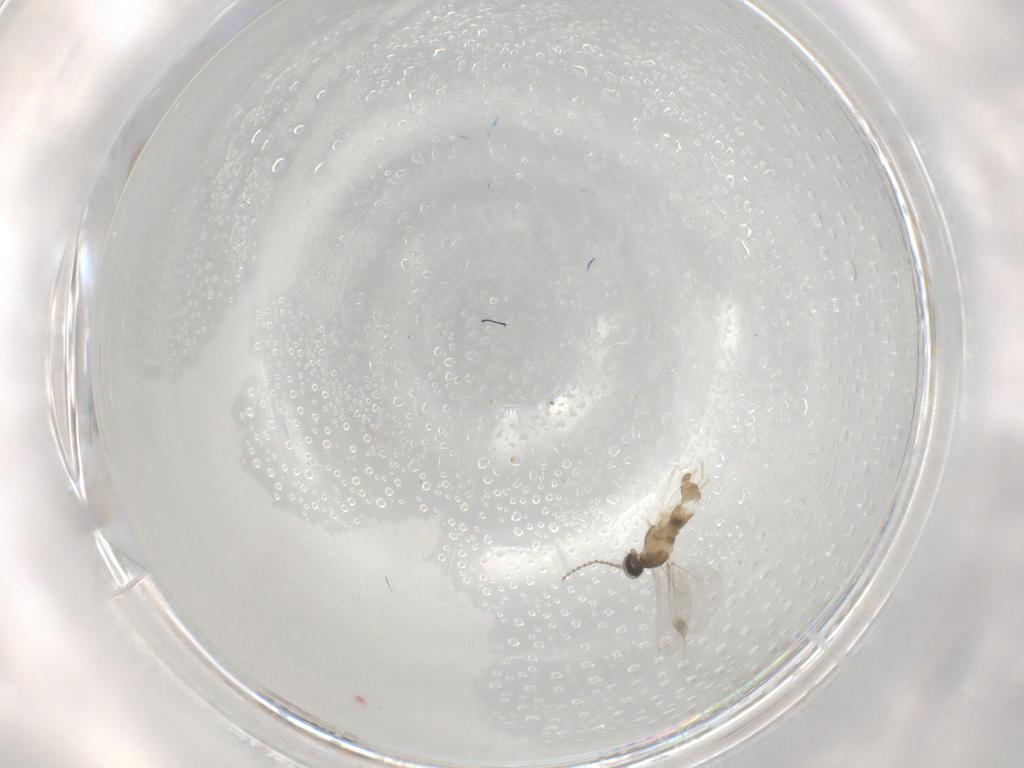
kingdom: Animalia
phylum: Arthropoda
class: Insecta
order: Diptera
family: Cecidomyiidae
